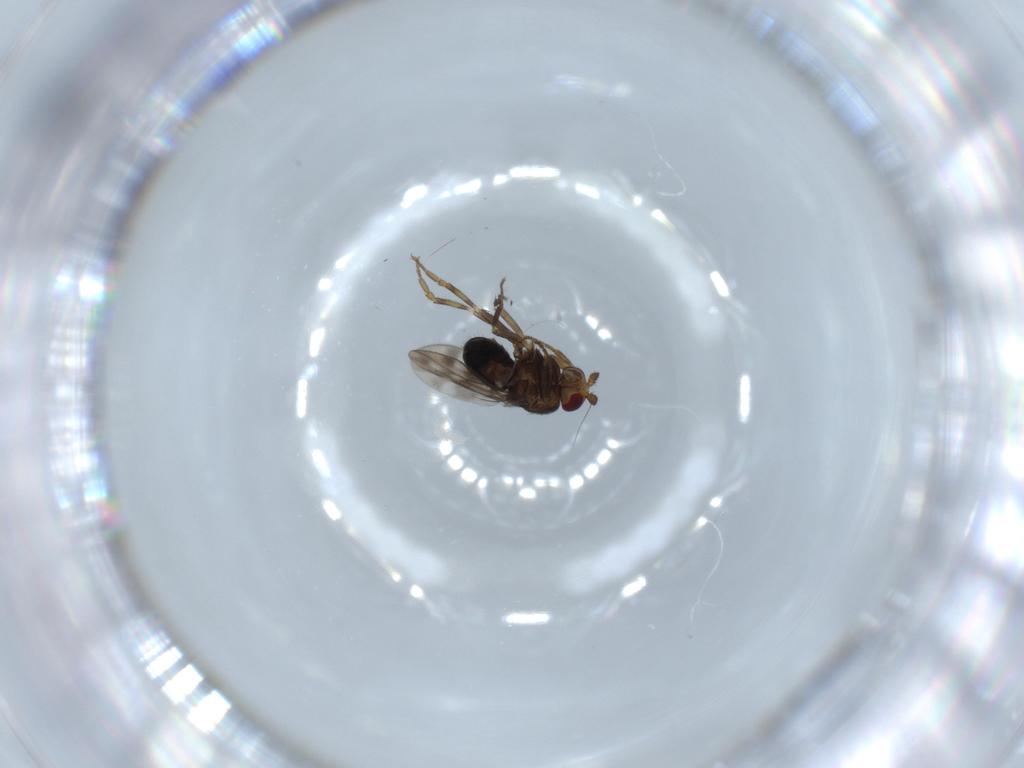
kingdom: Animalia
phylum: Arthropoda
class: Insecta
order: Diptera
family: Sphaeroceridae
